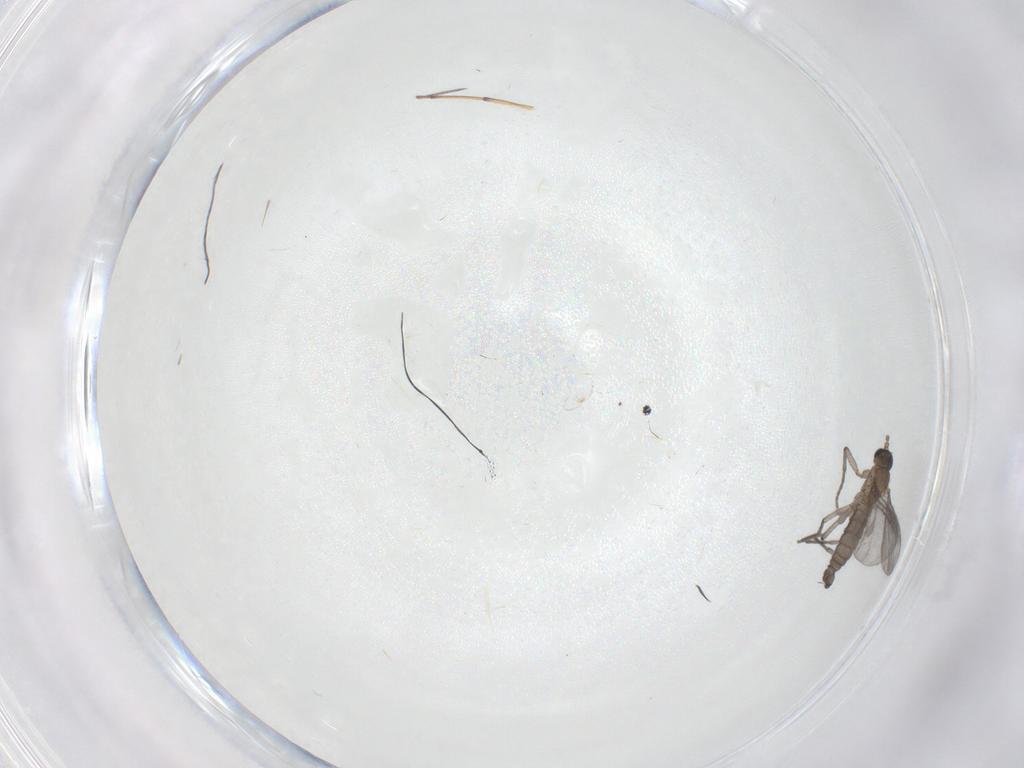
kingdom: Animalia
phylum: Arthropoda
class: Insecta
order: Diptera
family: Sciaridae
